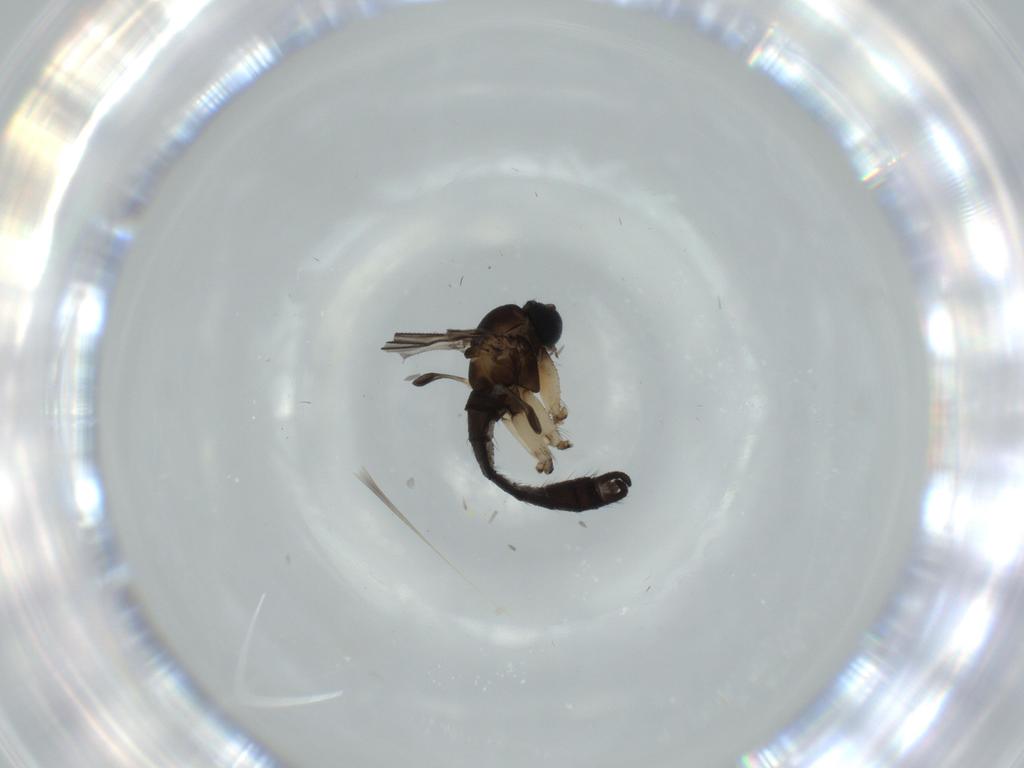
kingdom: Animalia
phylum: Arthropoda
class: Insecta
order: Diptera
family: Sciaridae
